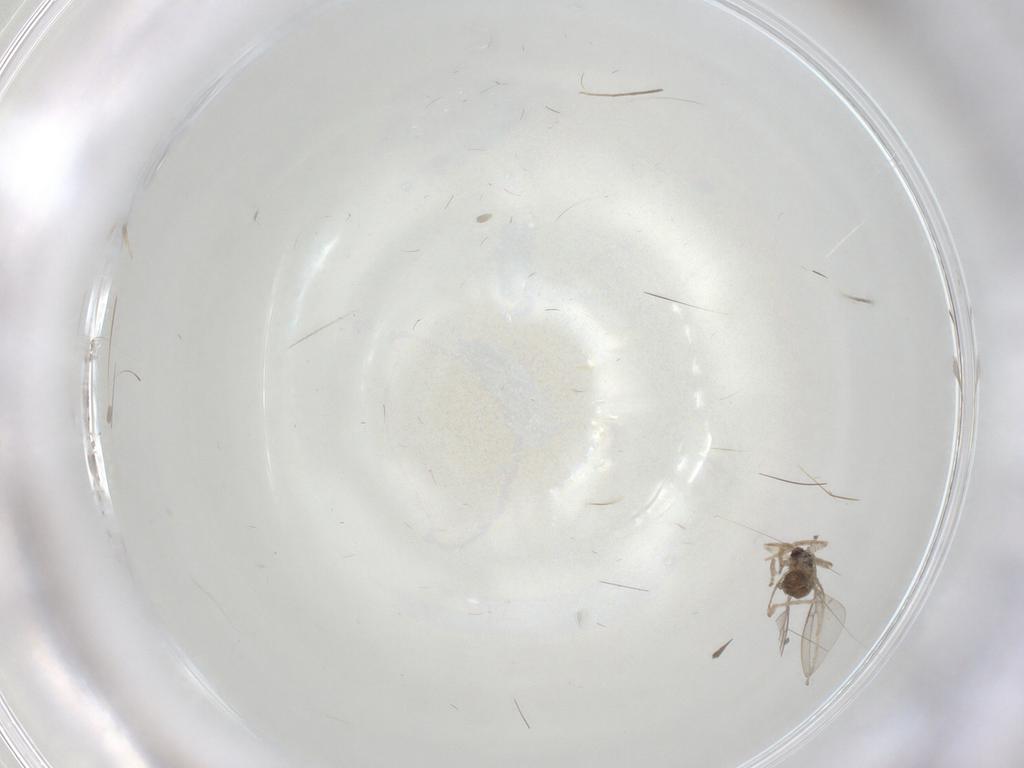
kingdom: Animalia
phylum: Arthropoda
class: Insecta
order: Diptera
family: Cecidomyiidae
